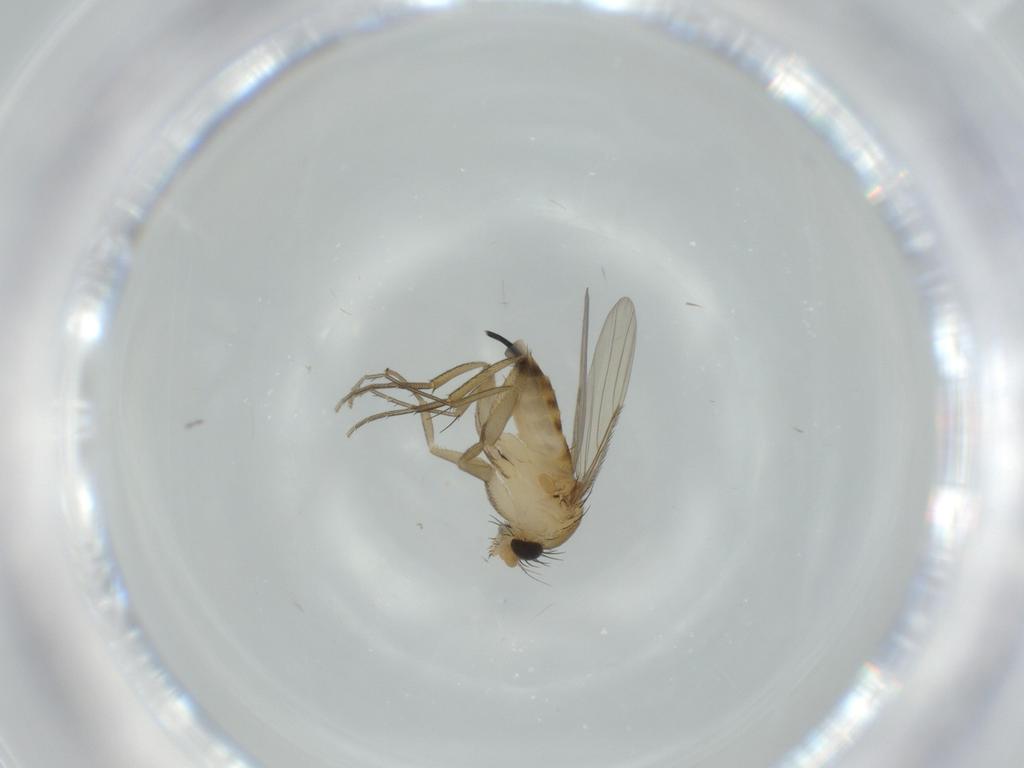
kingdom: Animalia
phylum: Arthropoda
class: Insecta
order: Diptera
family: Phoridae
